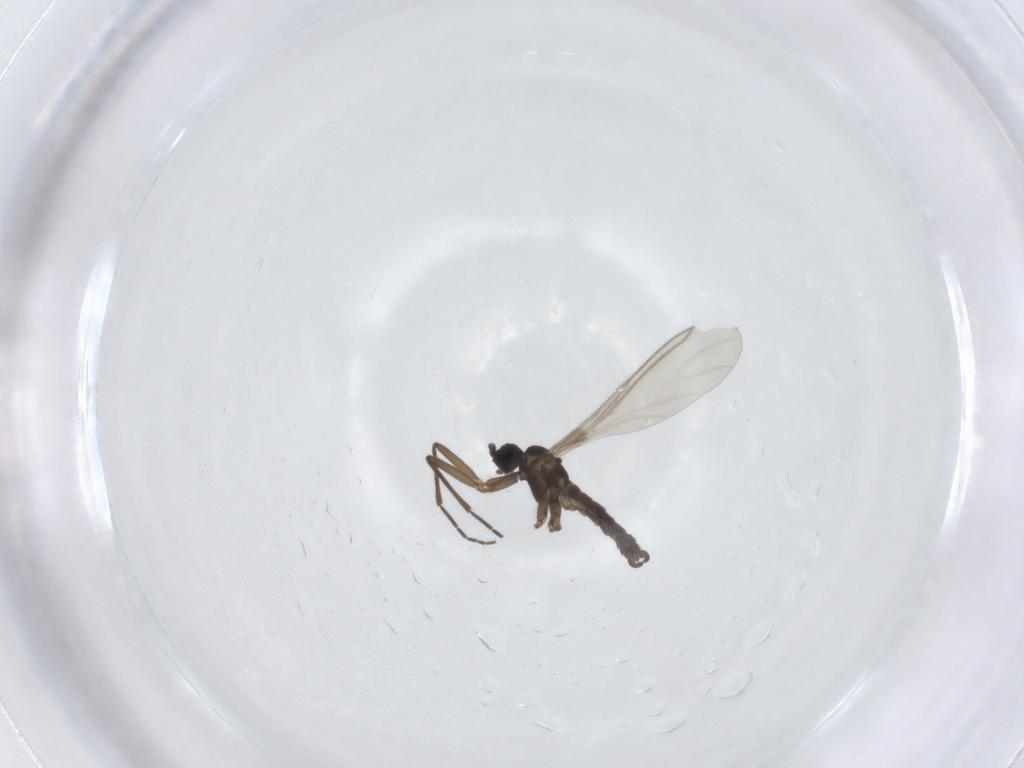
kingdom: Animalia
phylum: Arthropoda
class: Insecta
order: Diptera
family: Sciaridae
